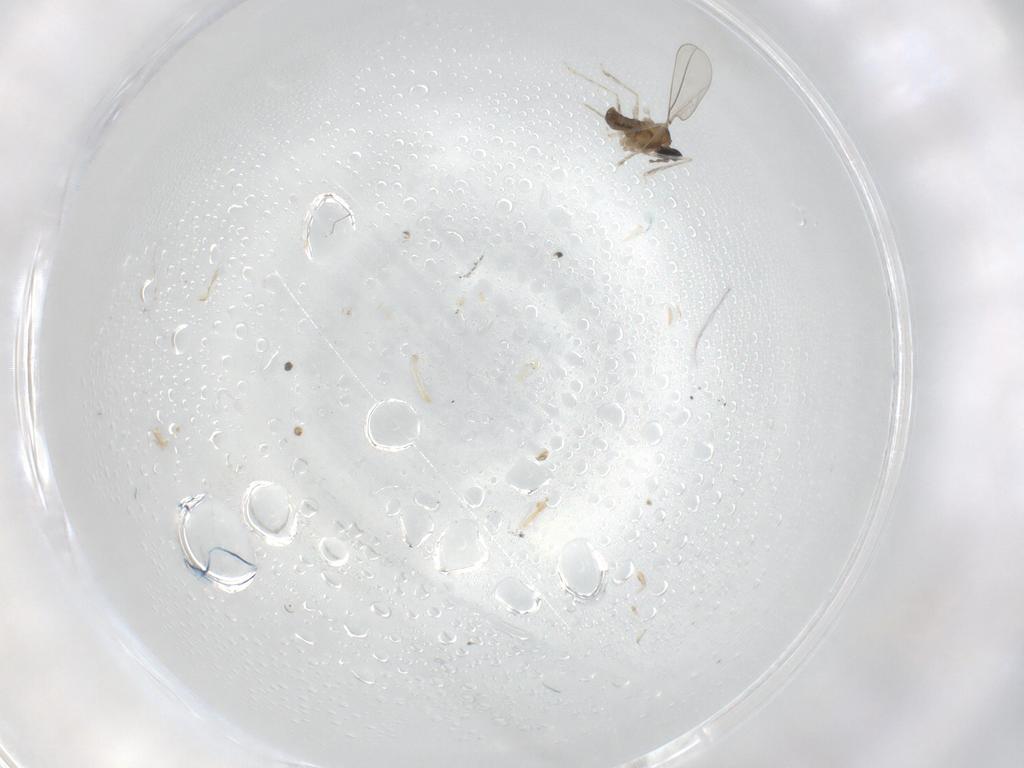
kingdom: Animalia
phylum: Arthropoda
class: Insecta
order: Diptera
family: Cecidomyiidae
